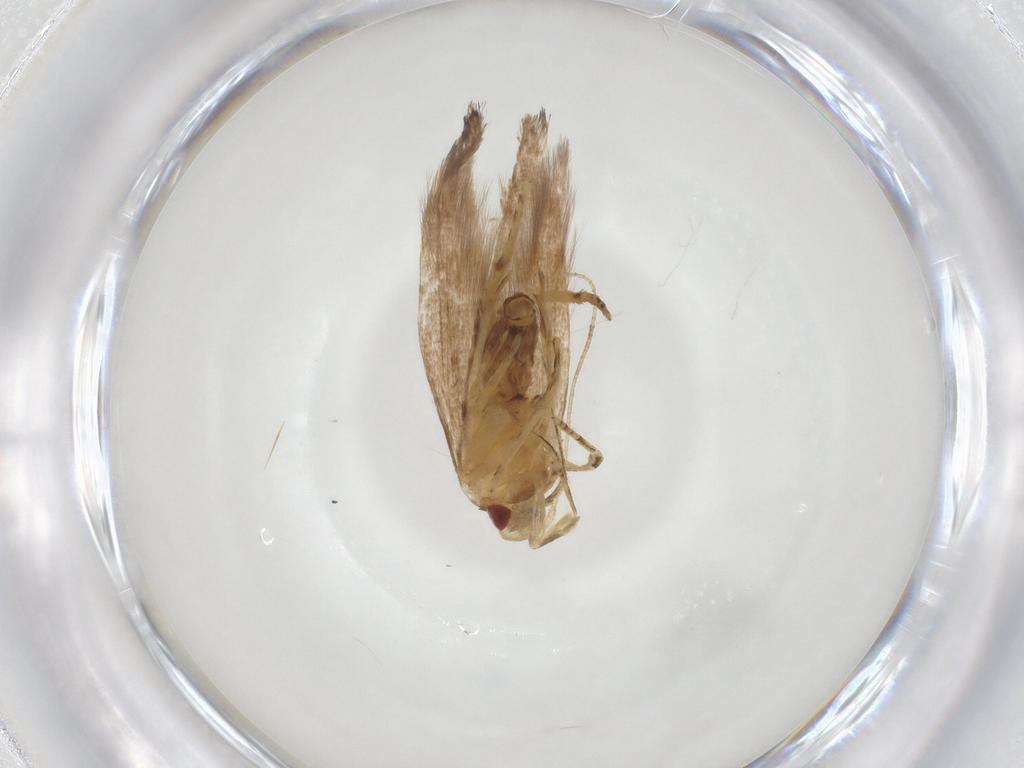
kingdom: Animalia
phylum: Arthropoda
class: Insecta
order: Lepidoptera
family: Cosmopterigidae
